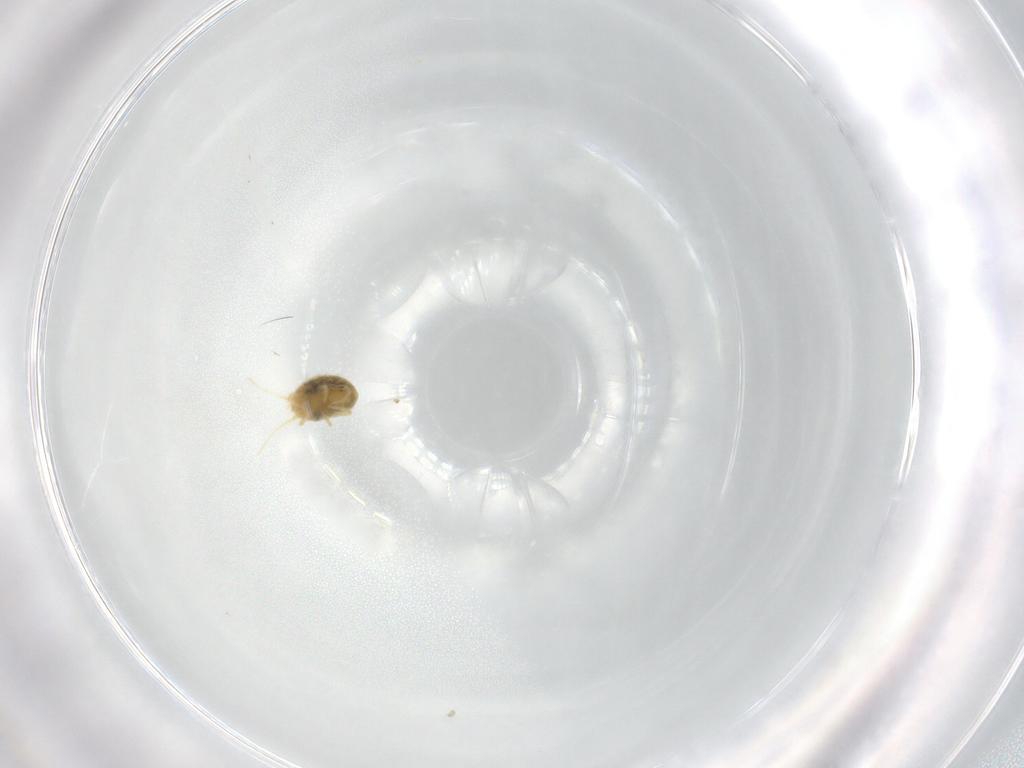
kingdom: Animalia
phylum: Arthropoda
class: Arachnida
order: Trombidiformes
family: Tetranychidae
